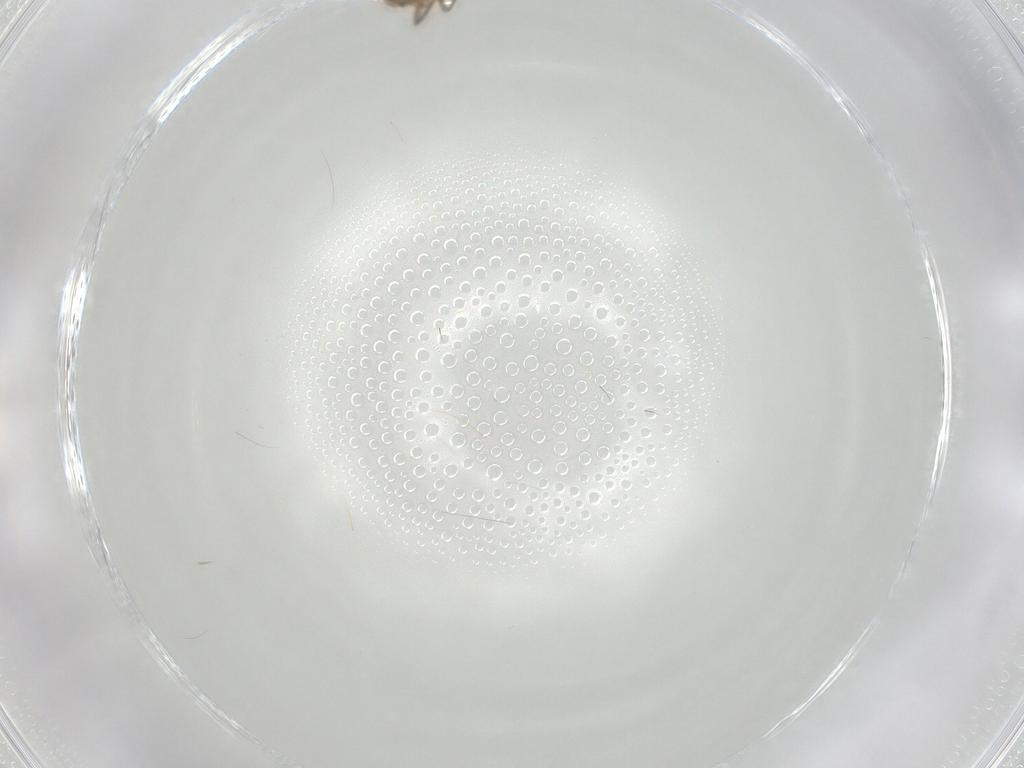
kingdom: Animalia
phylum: Arthropoda
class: Insecta
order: Diptera
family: Chironomidae
